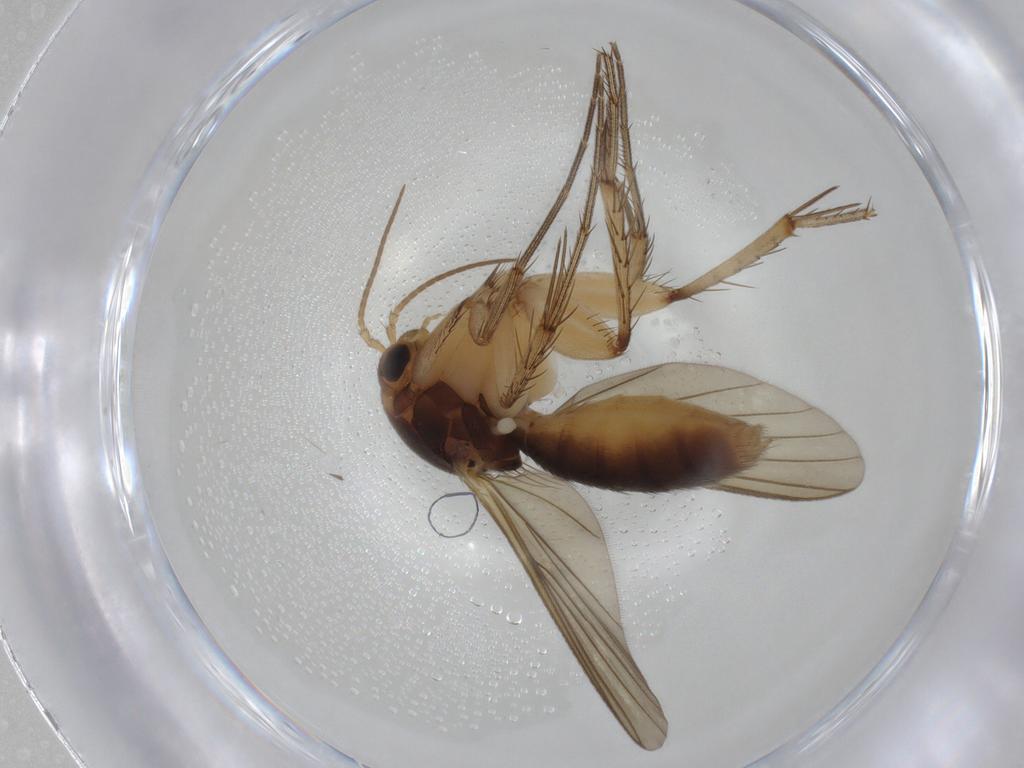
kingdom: Animalia
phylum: Arthropoda
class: Insecta
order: Diptera
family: Mycetophilidae
